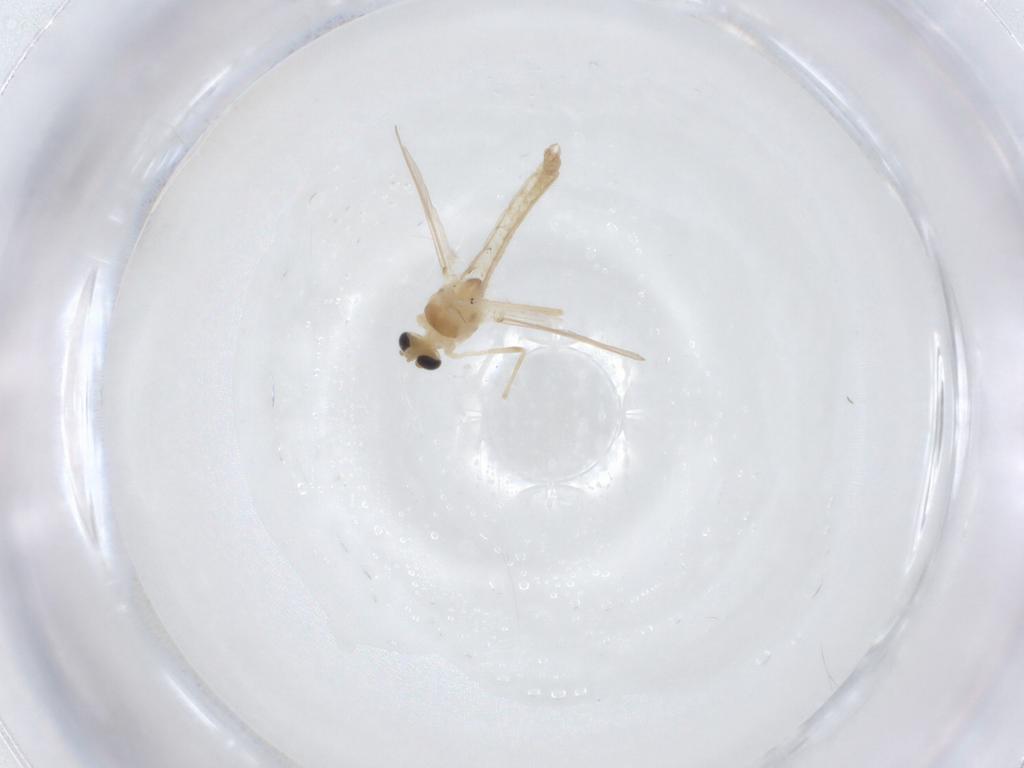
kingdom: Animalia
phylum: Arthropoda
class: Insecta
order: Diptera
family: Chironomidae
